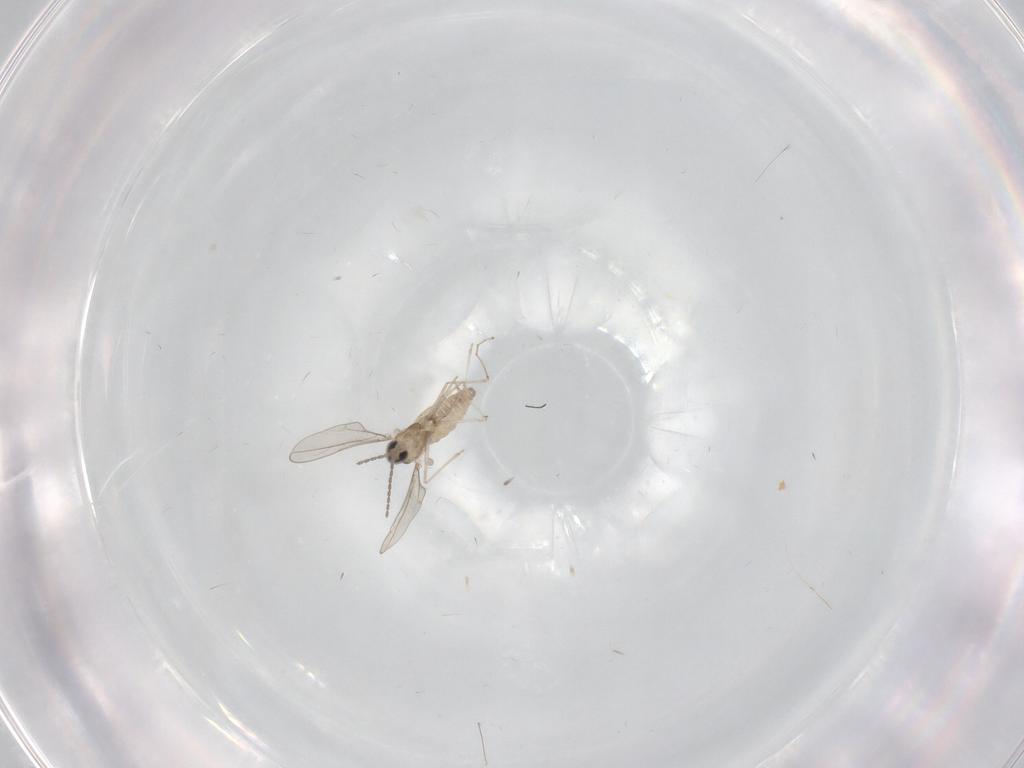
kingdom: Animalia
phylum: Arthropoda
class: Insecta
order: Diptera
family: Cecidomyiidae
